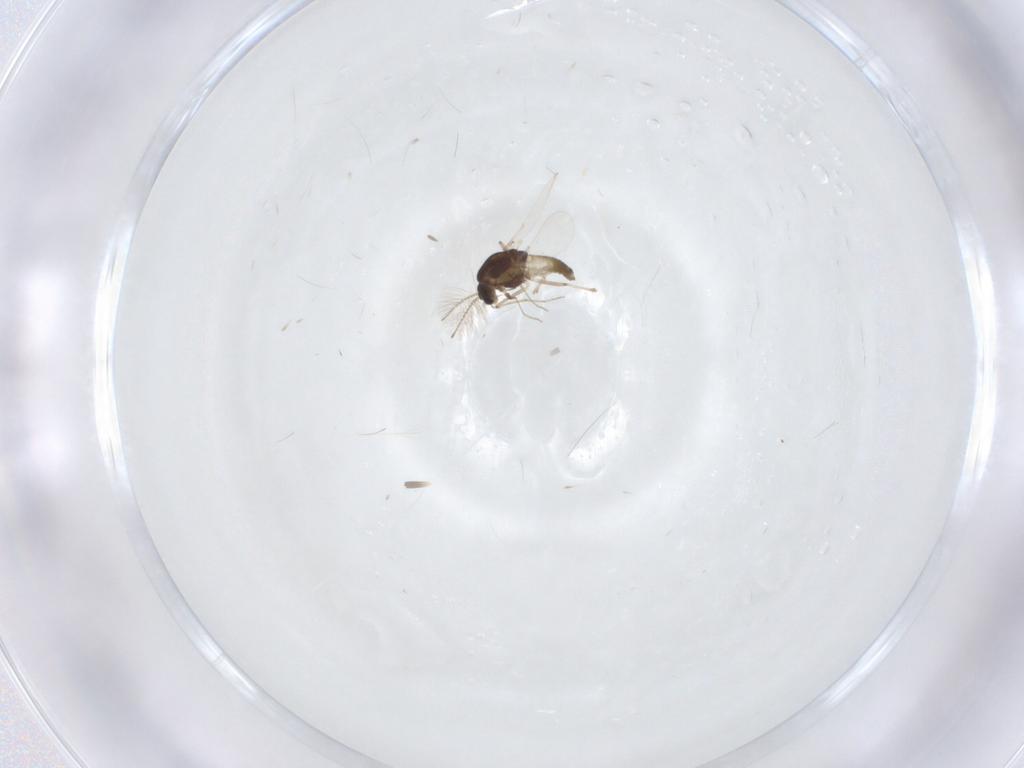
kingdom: Animalia
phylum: Arthropoda
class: Insecta
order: Diptera
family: Chironomidae
